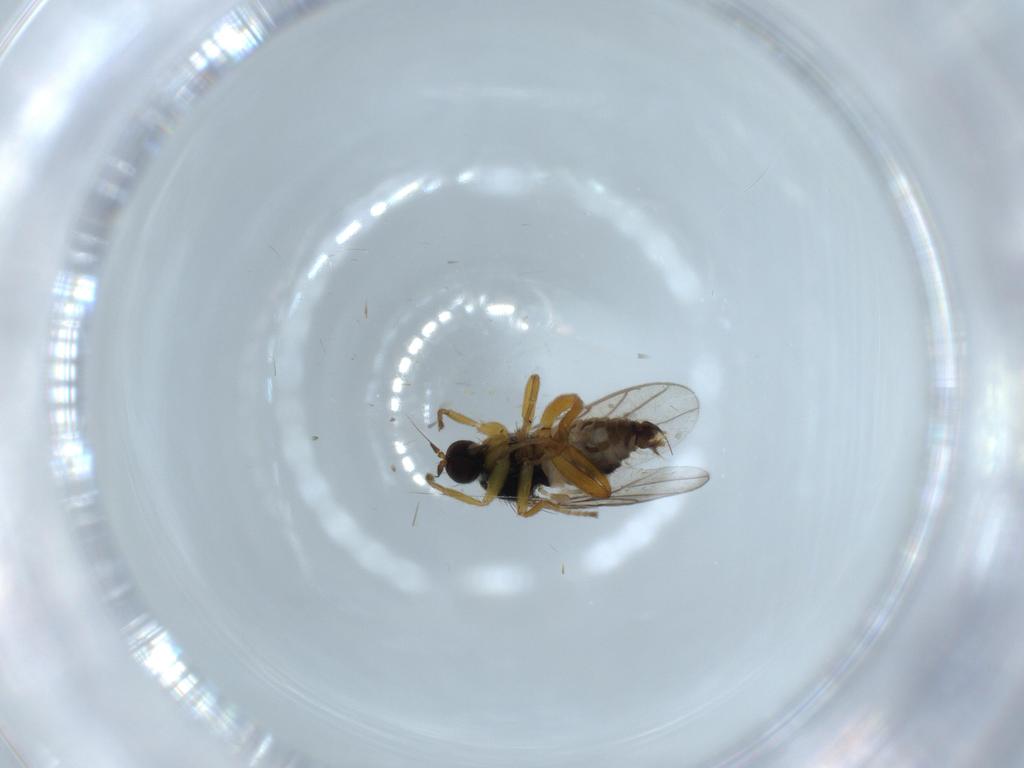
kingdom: Animalia
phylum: Arthropoda
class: Insecta
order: Diptera
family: Hybotidae
